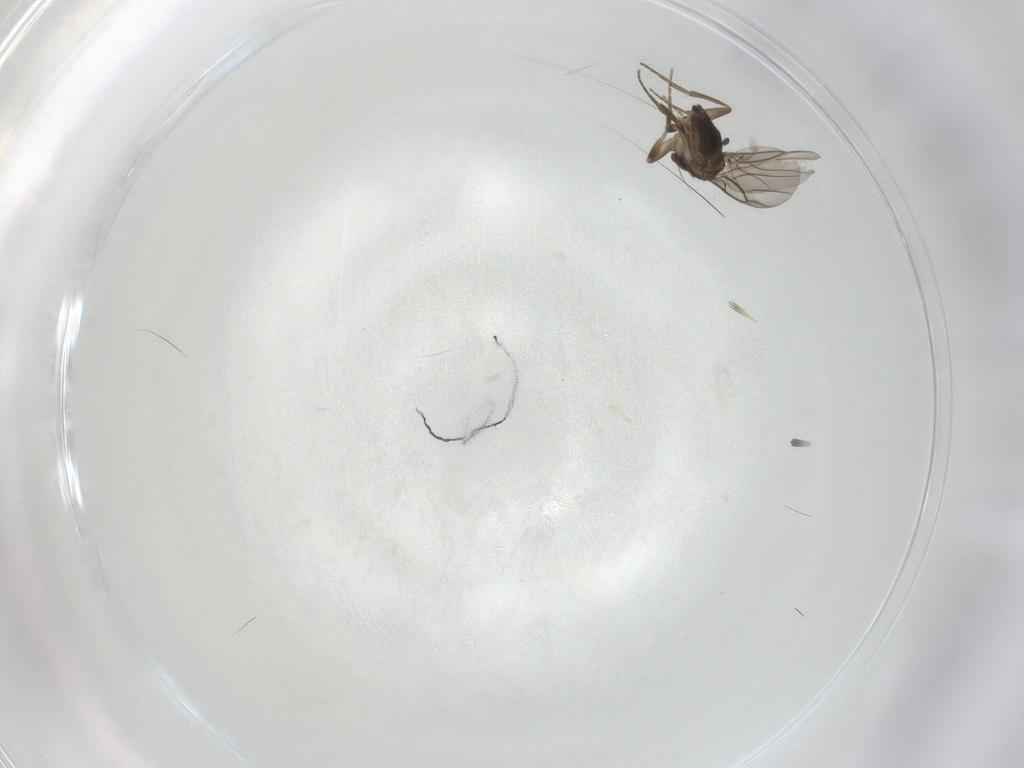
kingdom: Animalia
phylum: Arthropoda
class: Insecta
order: Diptera
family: Phoridae
